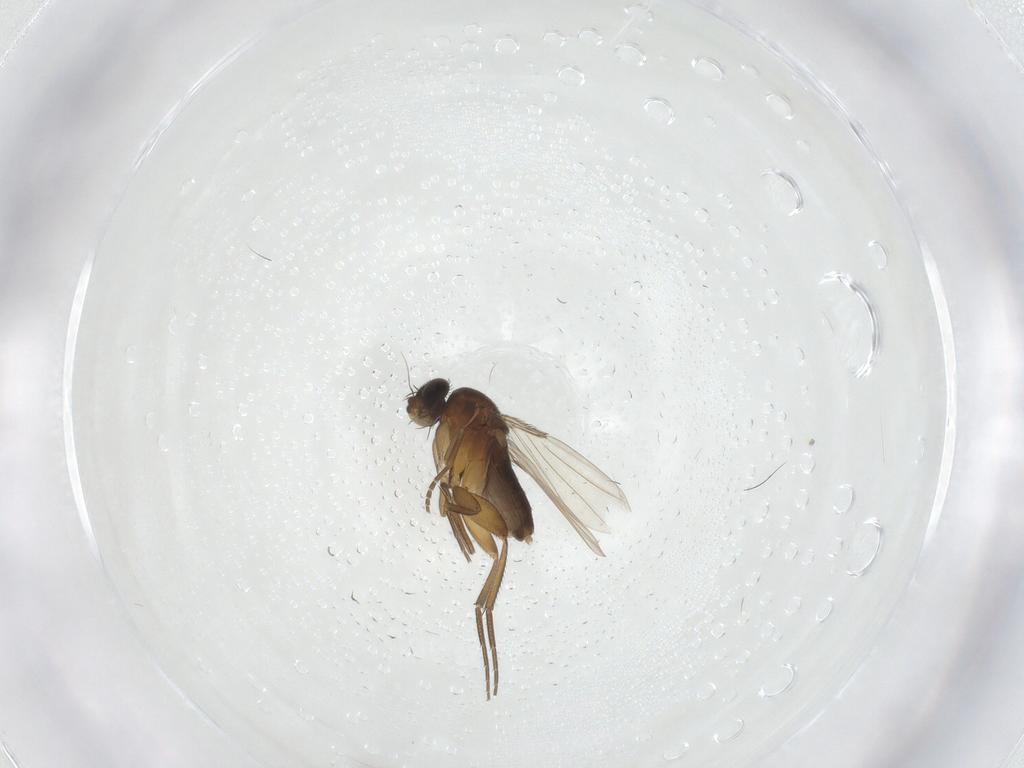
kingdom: Animalia
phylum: Arthropoda
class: Insecta
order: Diptera
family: Phoridae
